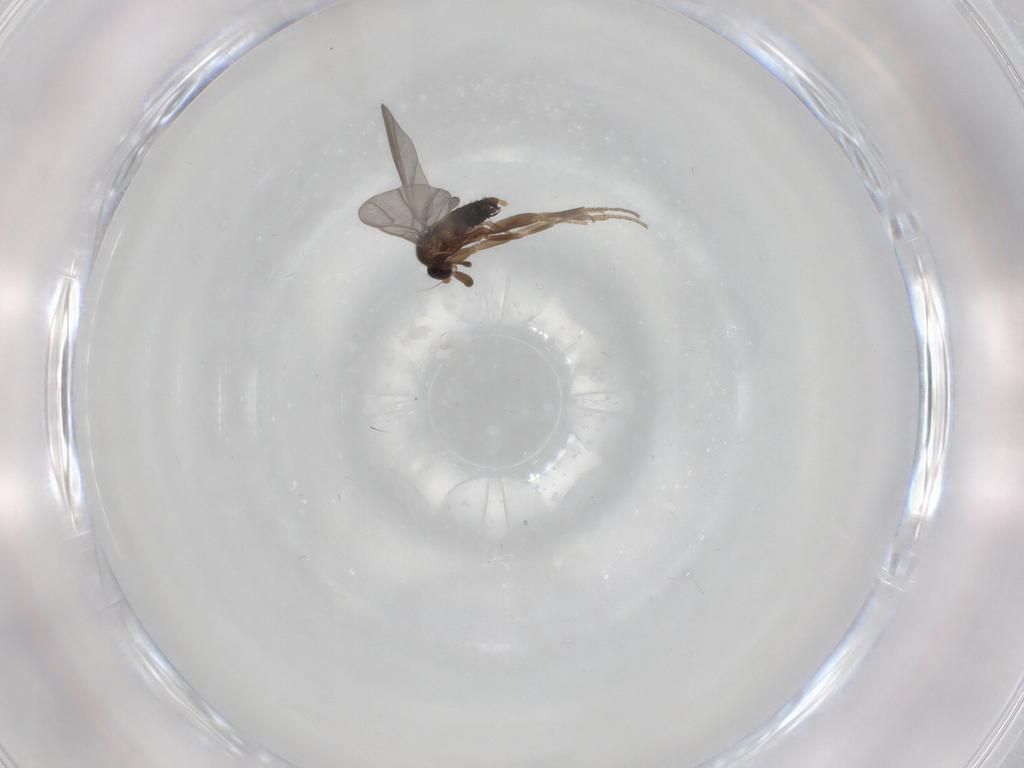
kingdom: Animalia
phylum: Arthropoda
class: Insecta
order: Diptera
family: Phoridae
